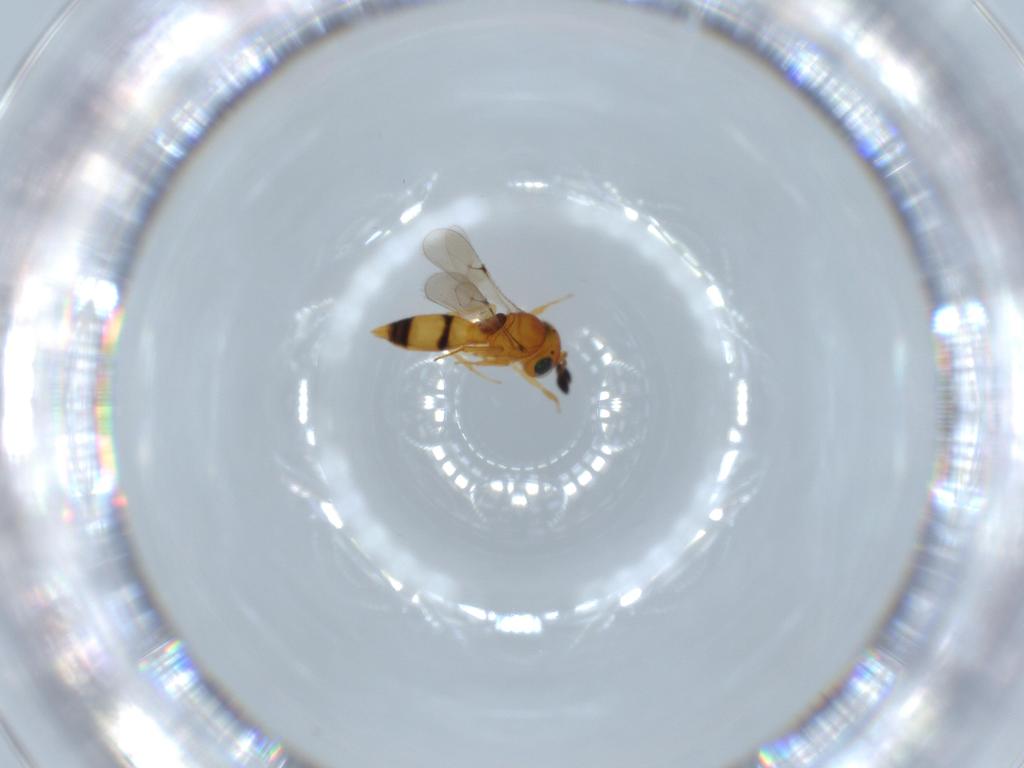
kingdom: Animalia
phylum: Arthropoda
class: Insecta
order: Hymenoptera
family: Scelionidae
